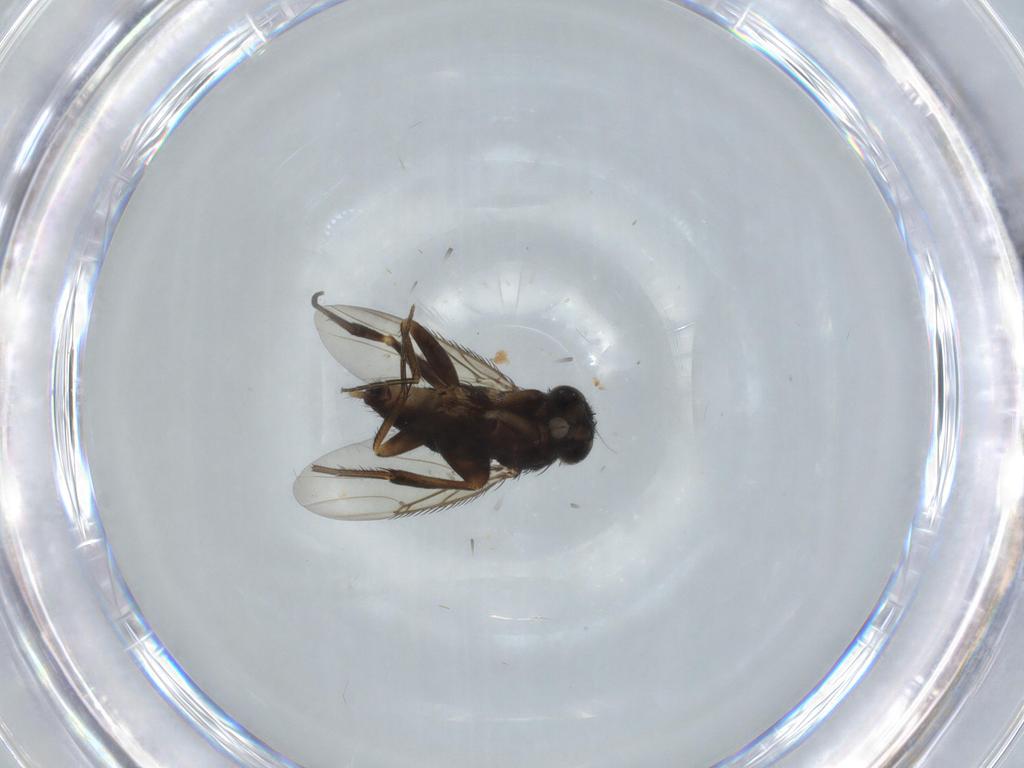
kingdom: Animalia
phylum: Arthropoda
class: Insecta
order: Diptera
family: Phoridae
